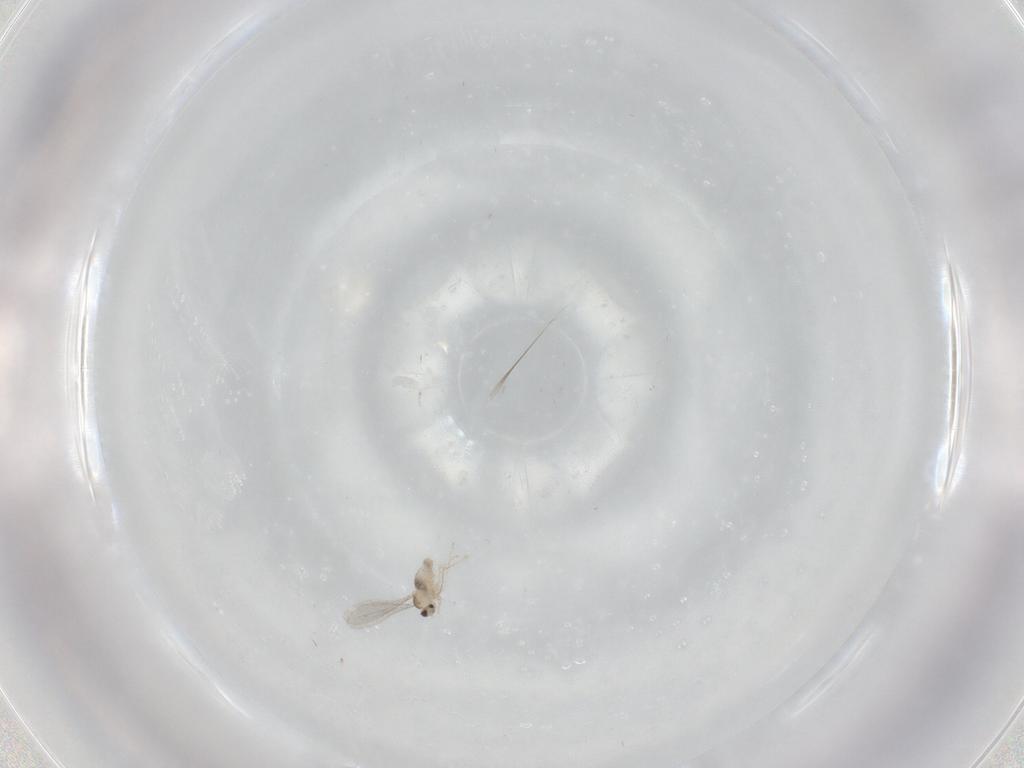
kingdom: Animalia
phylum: Arthropoda
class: Insecta
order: Diptera
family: Cecidomyiidae
